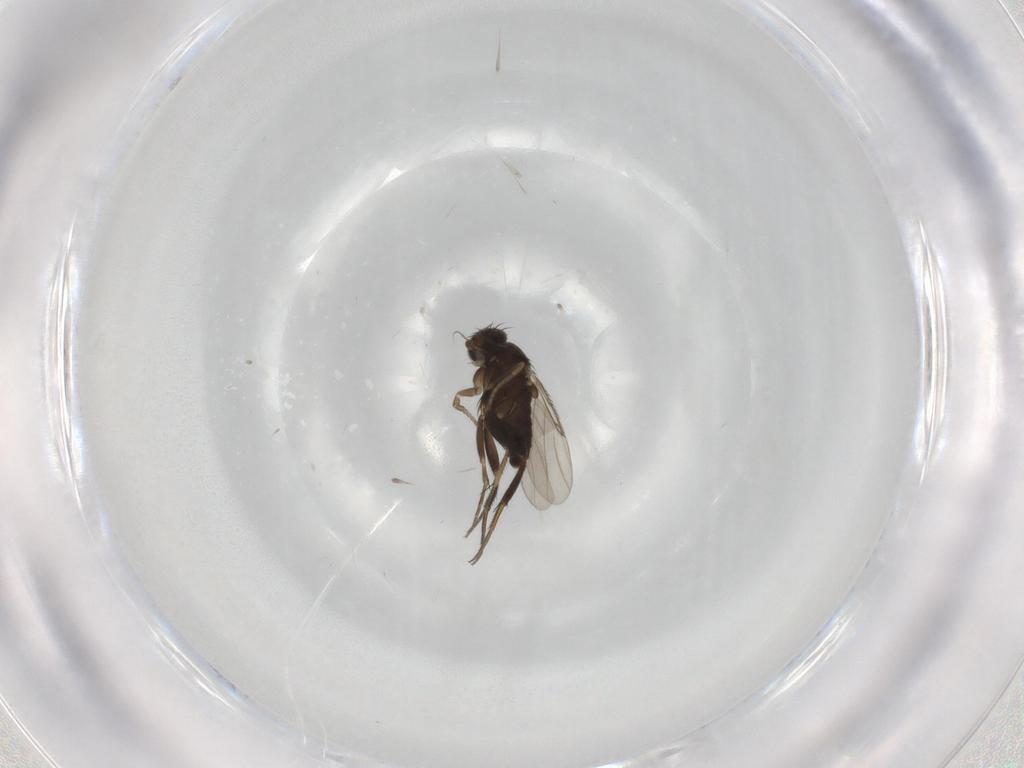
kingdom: Animalia
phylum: Arthropoda
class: Insecta
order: Diptera
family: Phoridae
